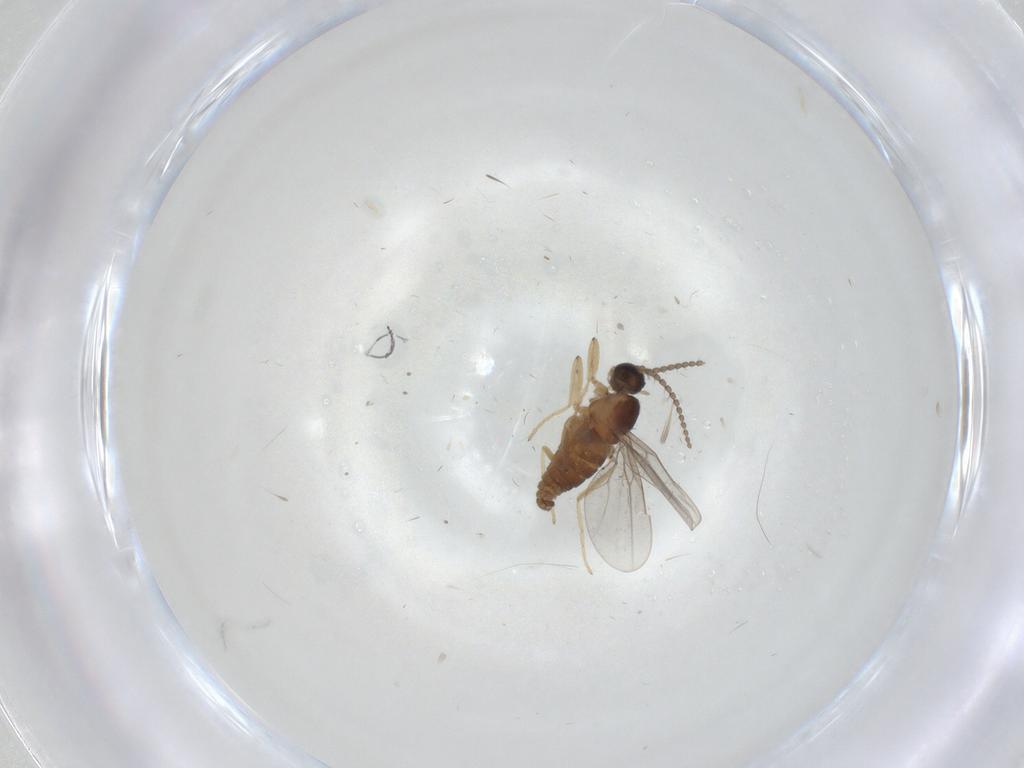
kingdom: Animalia
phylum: Arthropoda
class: Insecta
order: Diptera
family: Cecidomyiidae
